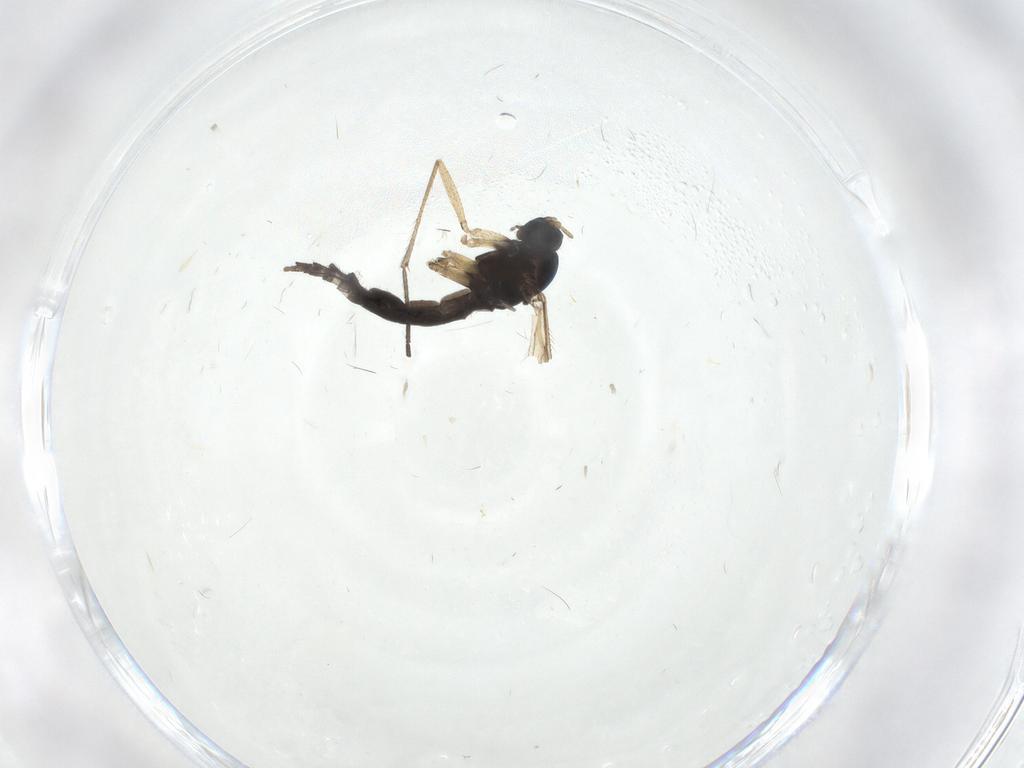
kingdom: Animalia
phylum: Arthropoda
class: Insecta
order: Diptera
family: Sciaridae
